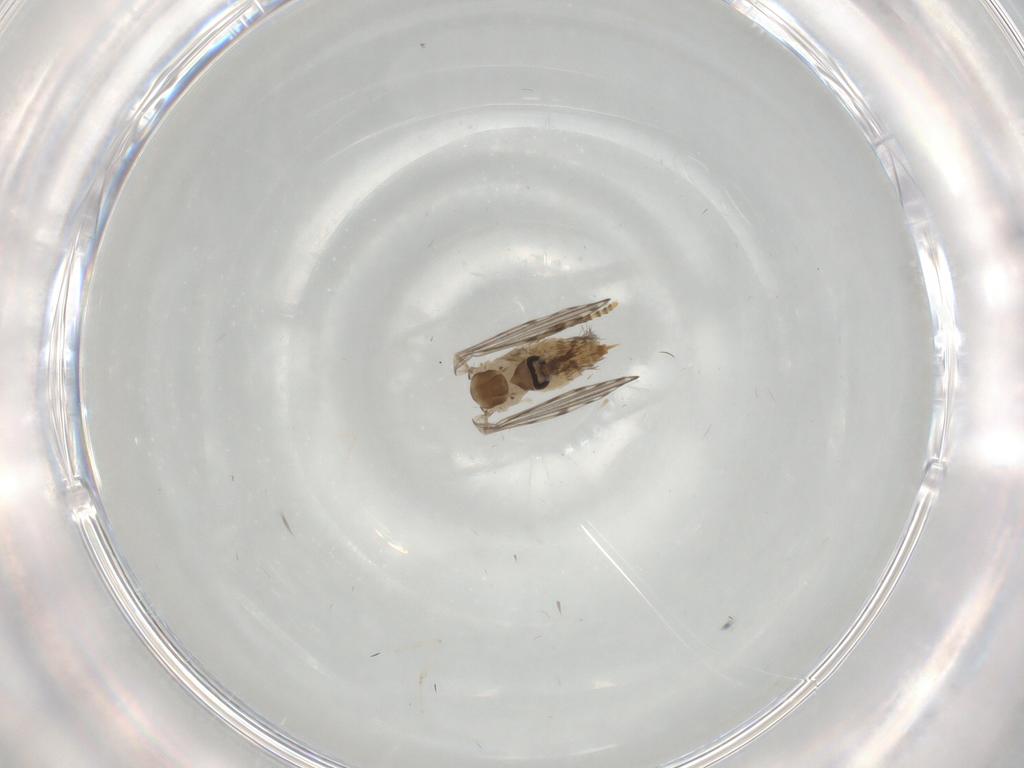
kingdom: Animalia
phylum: Arthropoda
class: Insecta
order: Diptera
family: Psychodidae
